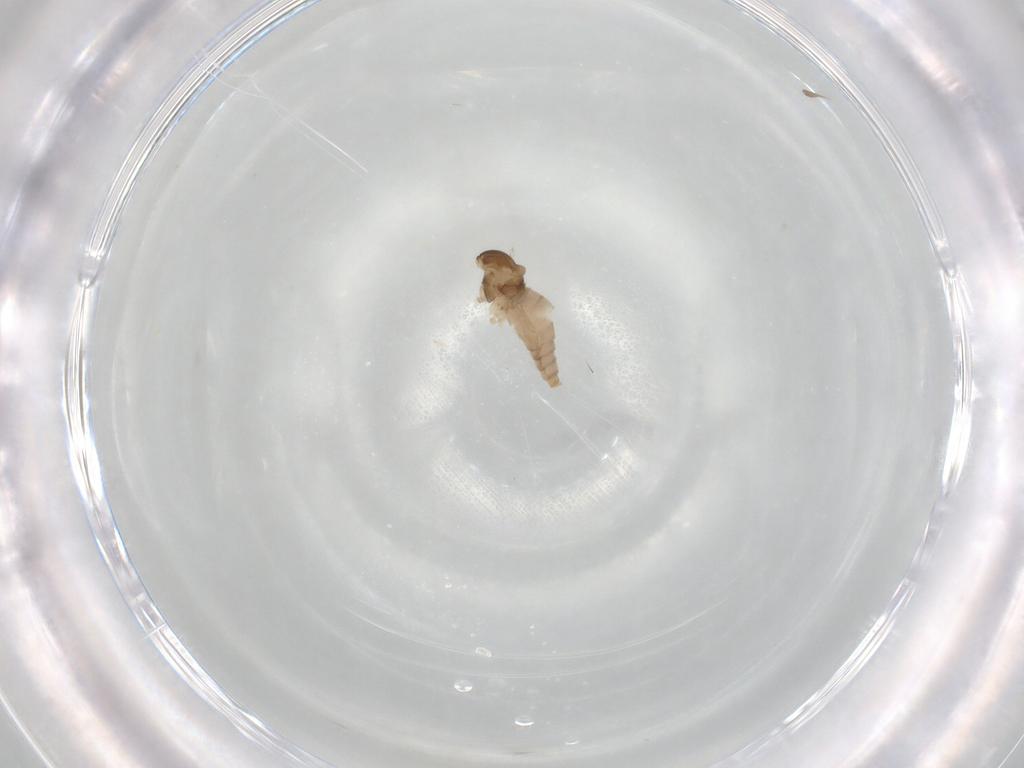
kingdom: Animalia
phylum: Arthropoda
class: Insecta
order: Diptera
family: Cecidomyiidae
